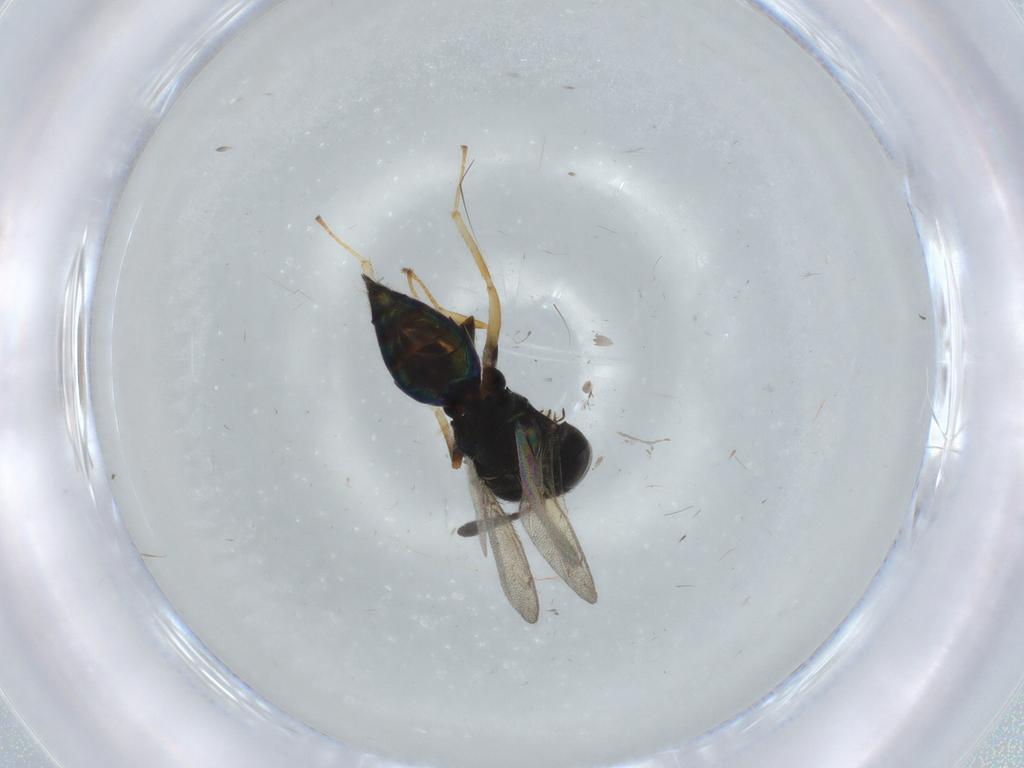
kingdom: Animalia
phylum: Arthropoda
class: Insecta
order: Hymenoptera
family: Pteromalidae
